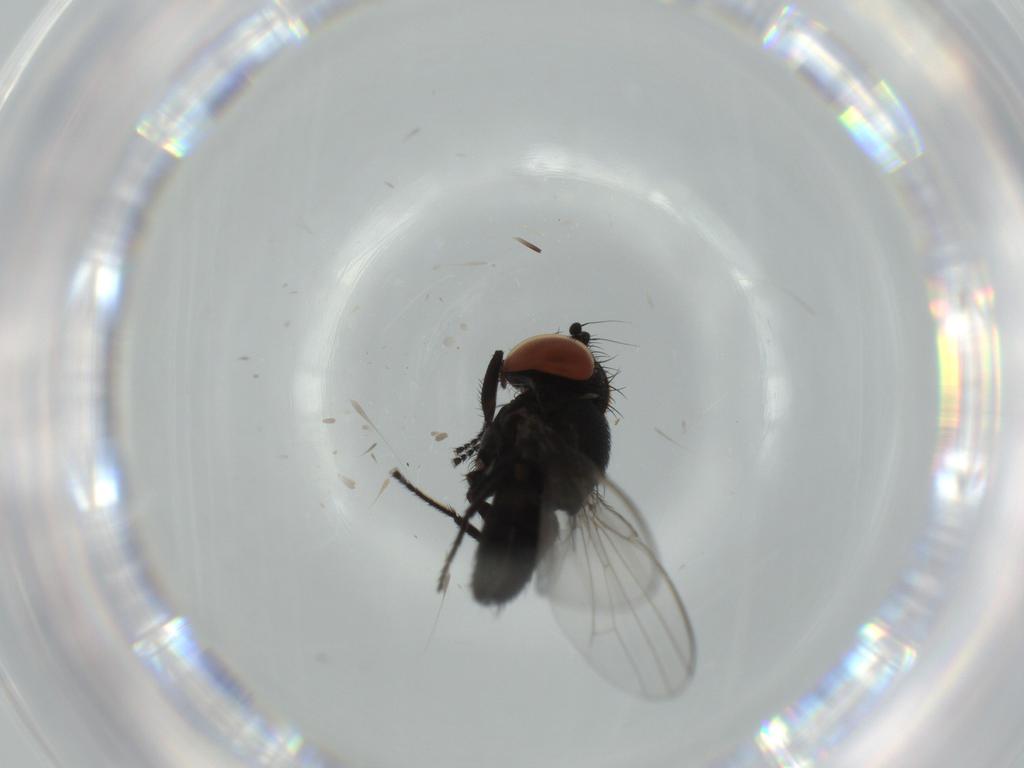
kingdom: Animalia
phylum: Arthropoda
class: Insecta
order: Diptera
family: Milichiidae
